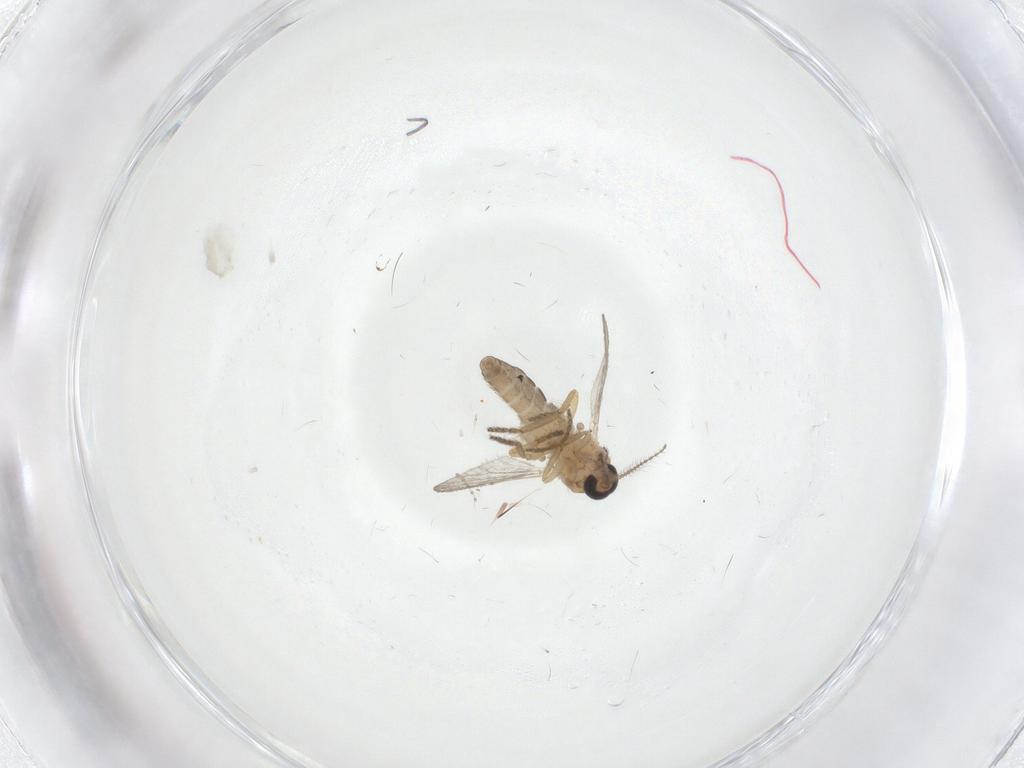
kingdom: Animalia
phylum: Arthropoda
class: Insecta
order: Diptera
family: Ceratopogonidae
